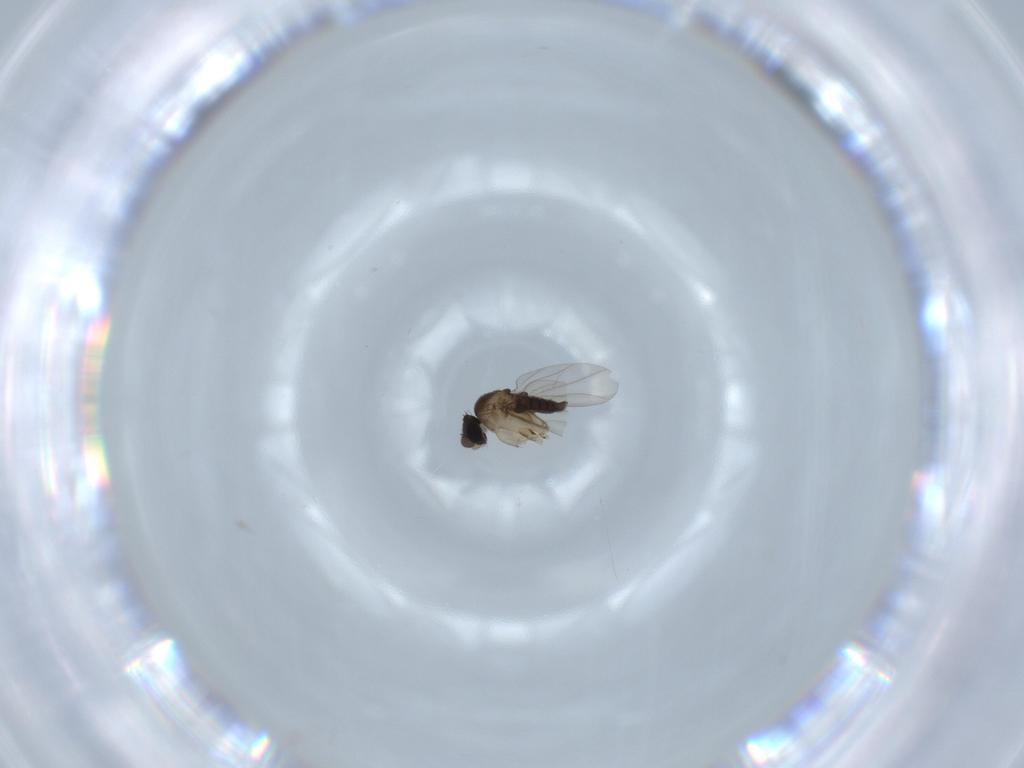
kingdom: Animalia
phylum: Arthropoda
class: Insecta
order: Diptera
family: Phoridae
